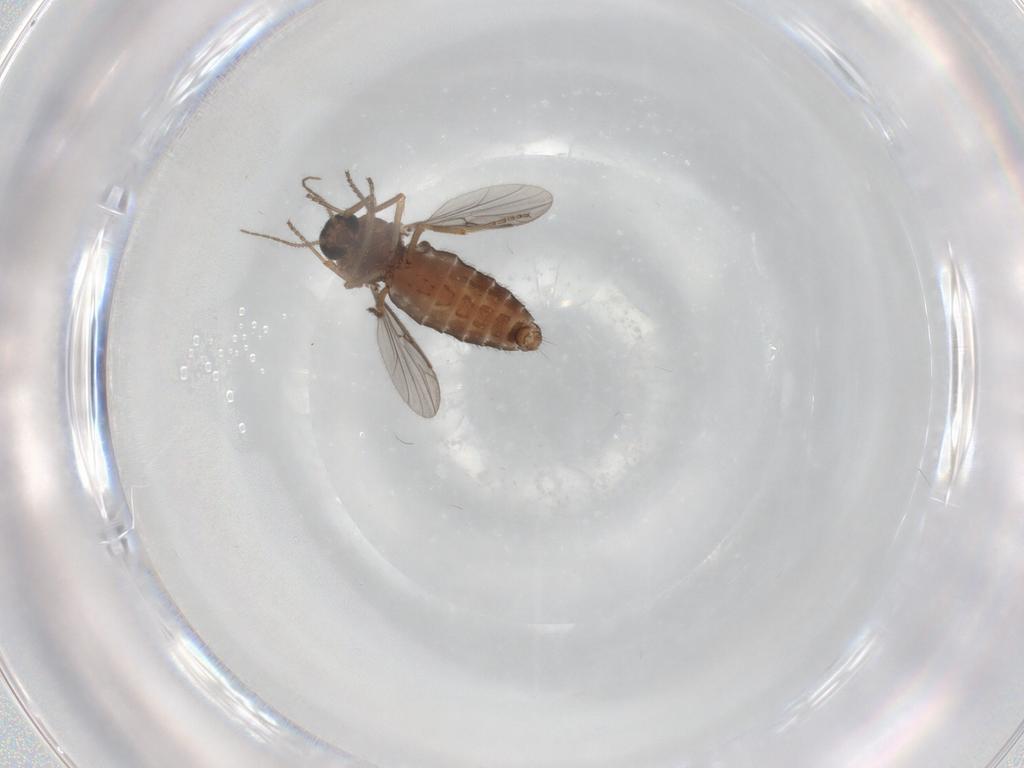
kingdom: Animalia
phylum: Arthropoda
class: Insecta
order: Diptera
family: Ceratopogonidae
